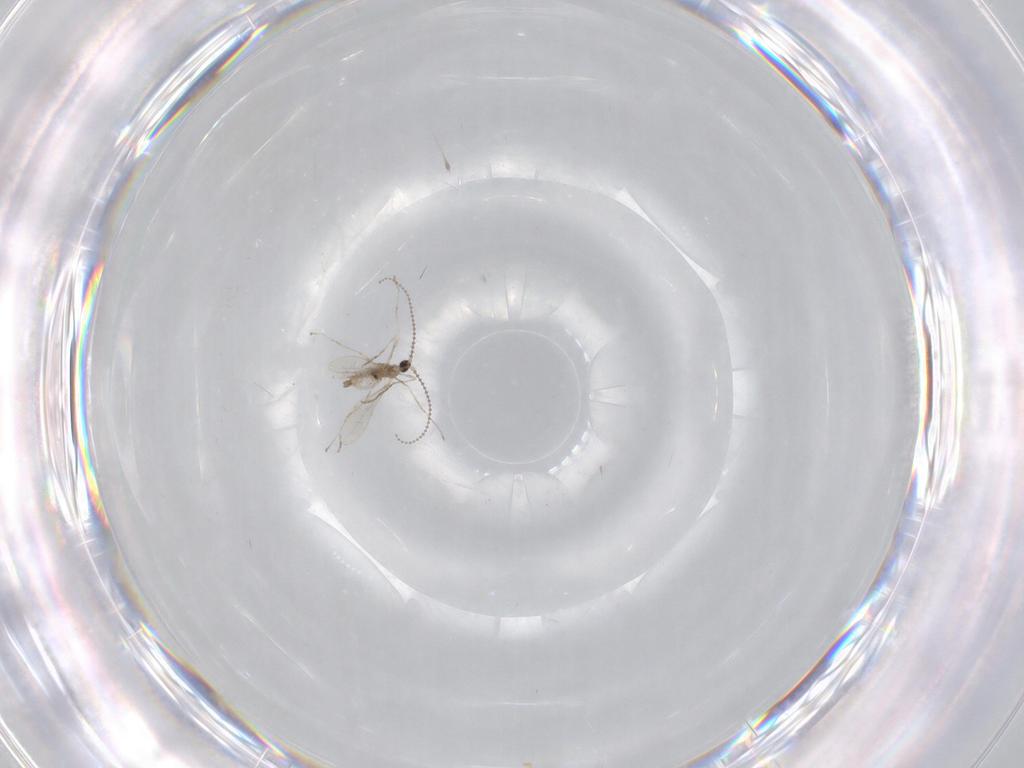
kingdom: Animalia
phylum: Arthropoda
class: Insecta
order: Diptera
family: Cecidomyiidae
